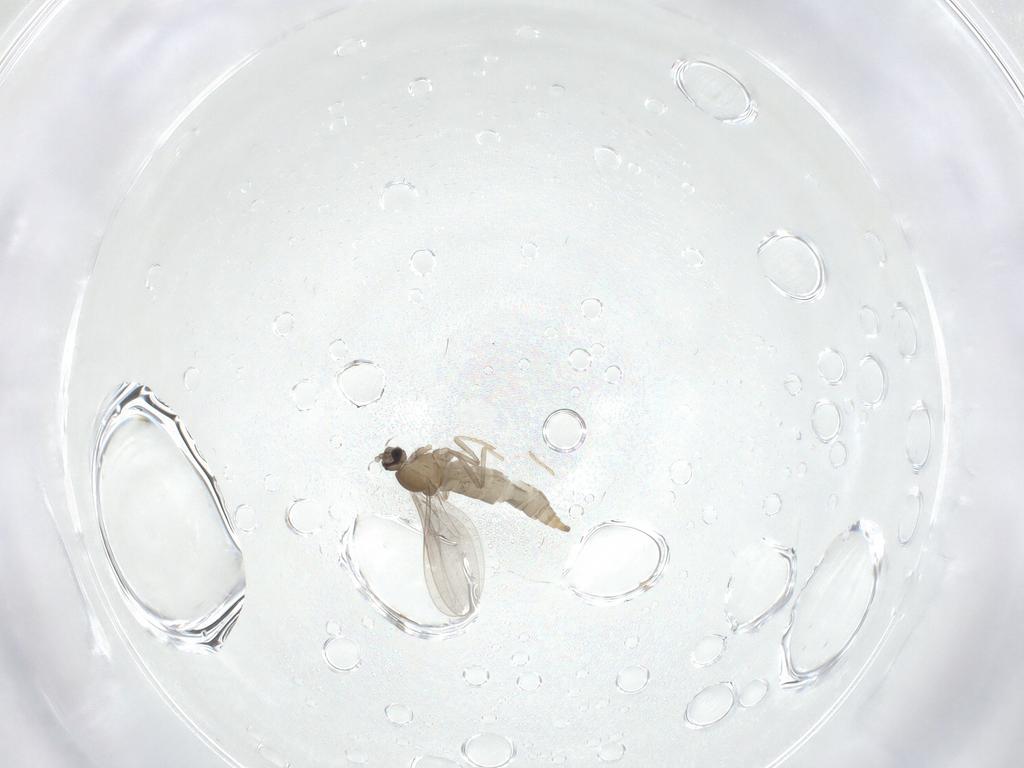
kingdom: Animalia
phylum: Arthropoda
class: Insecta
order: Diptera
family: Cecidomyiidae
